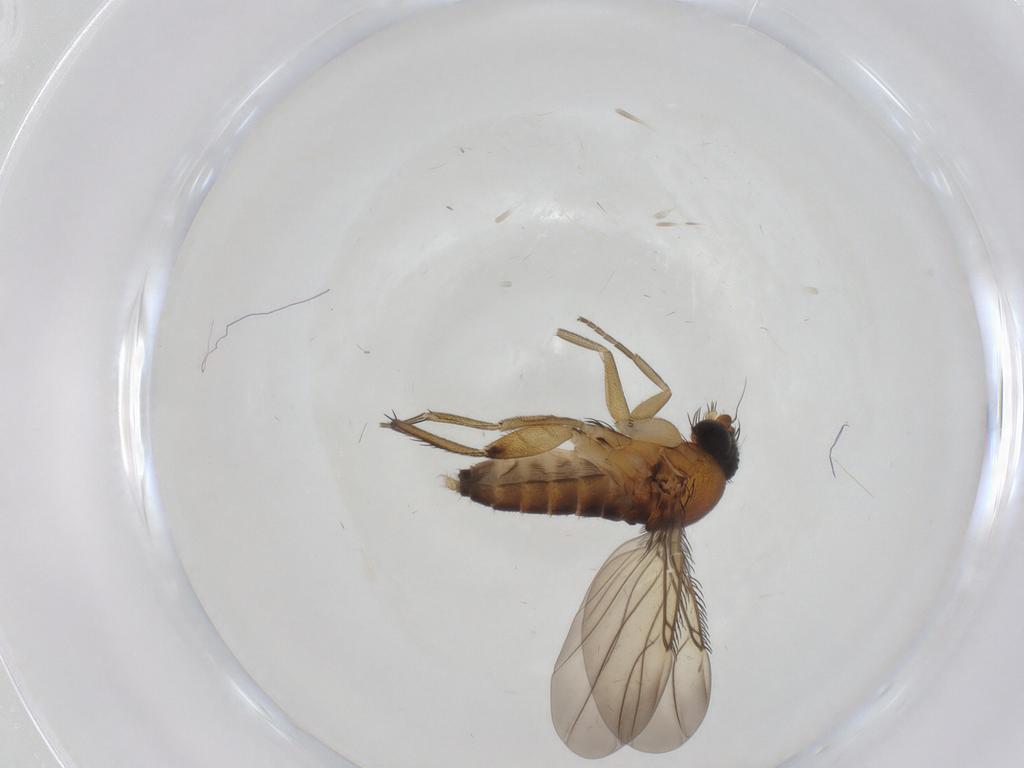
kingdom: Animalia
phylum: Arthropoda
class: Insecta
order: Diptera
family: Phoridae
